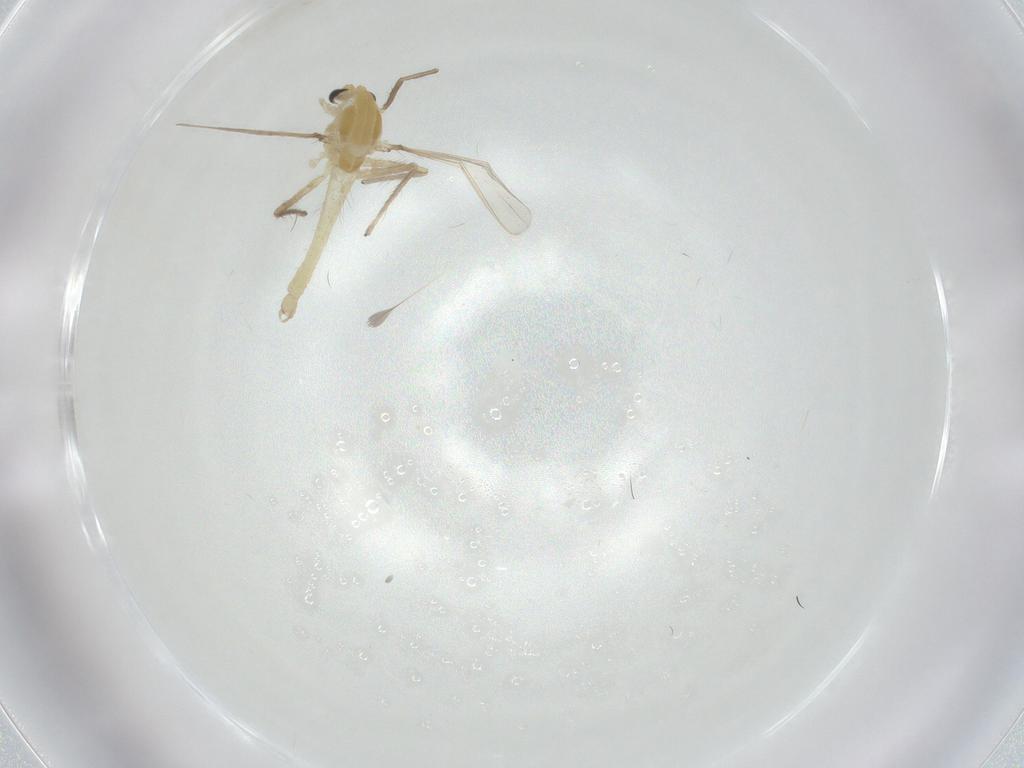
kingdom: Animalia
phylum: Arthropoda
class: Insecta
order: Diptera
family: Chironomidae
